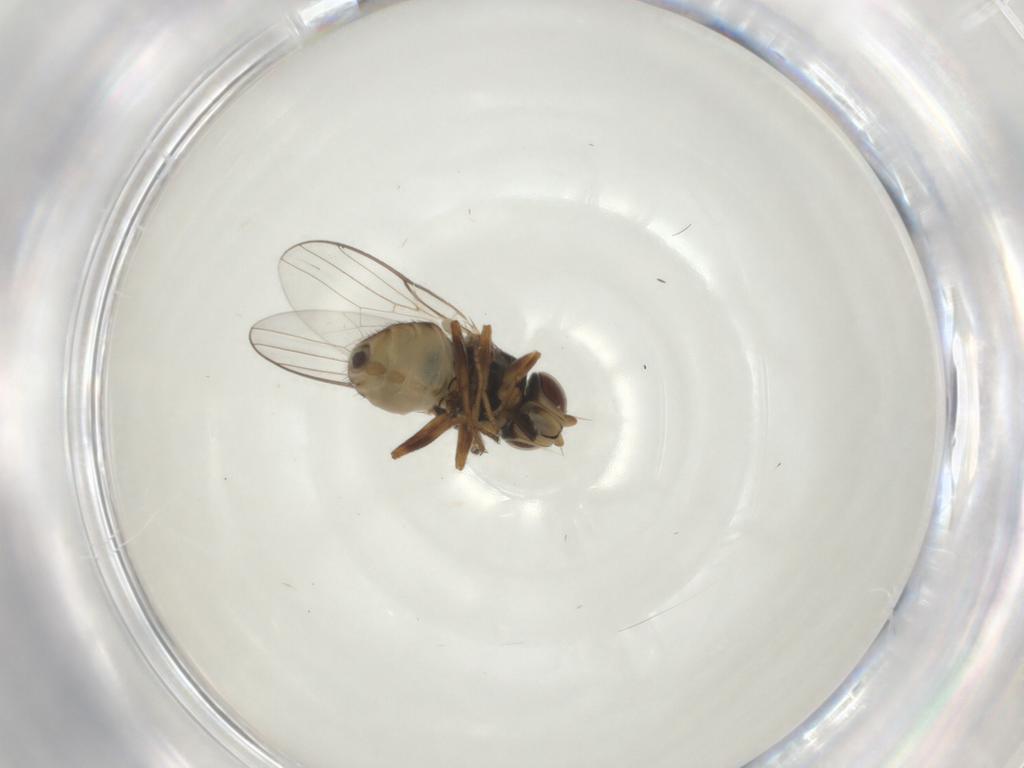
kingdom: Animalia
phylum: Arthropoda
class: Insecta
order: Diptera
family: Chloropidae
